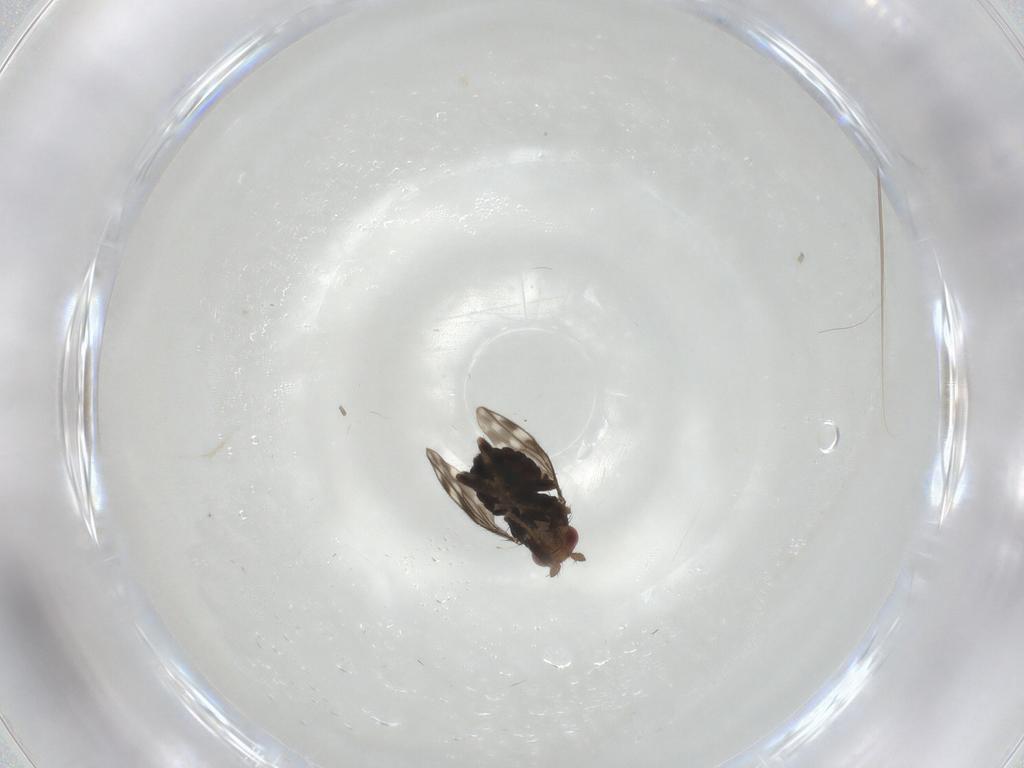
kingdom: Animalia
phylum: Arthropoda
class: Insecta
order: Diptera
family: Sphaeroceridae
